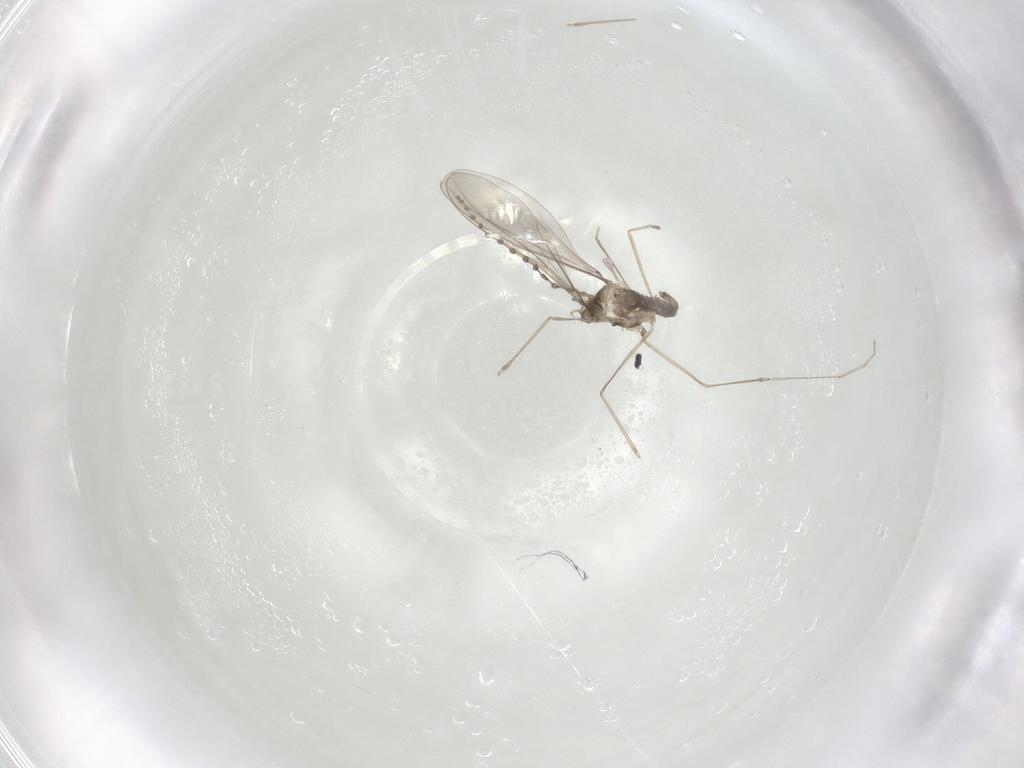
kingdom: Animalia
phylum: Arthropoda
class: Insecta
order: Diptera
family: Cecidomyiidae
